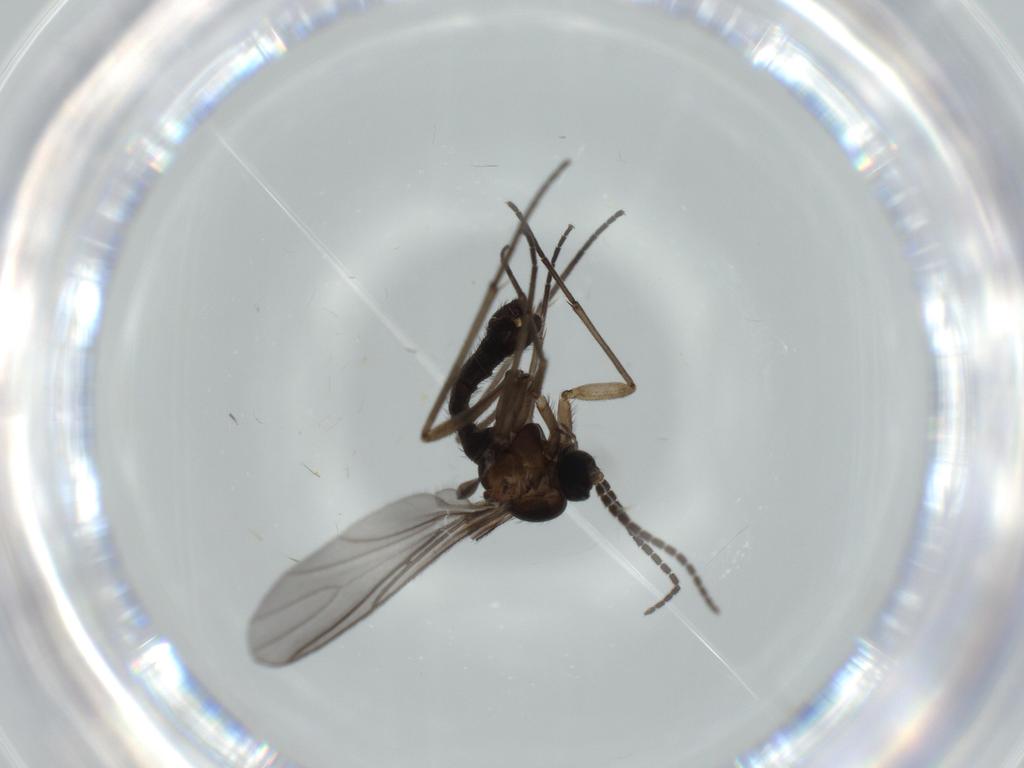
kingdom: Animalia
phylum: Arthropoda
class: Insecta
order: Diptera
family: Sciaridae
